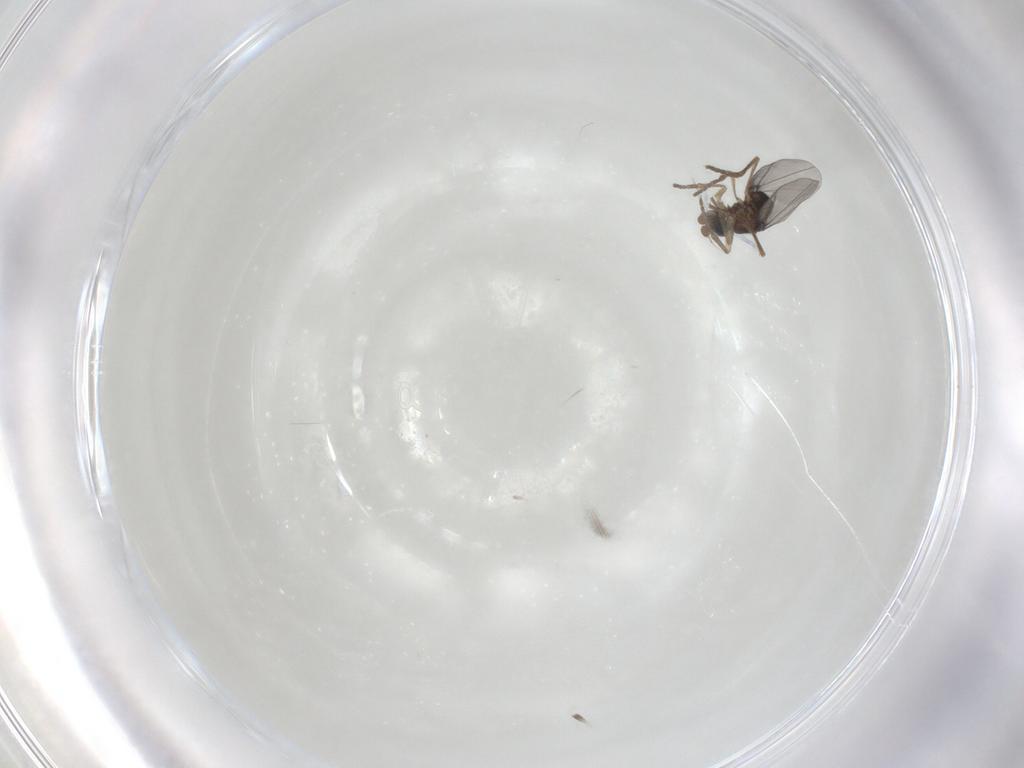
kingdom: Animalia
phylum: Arthropoda
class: Insecta
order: Diptera
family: Phoridae
